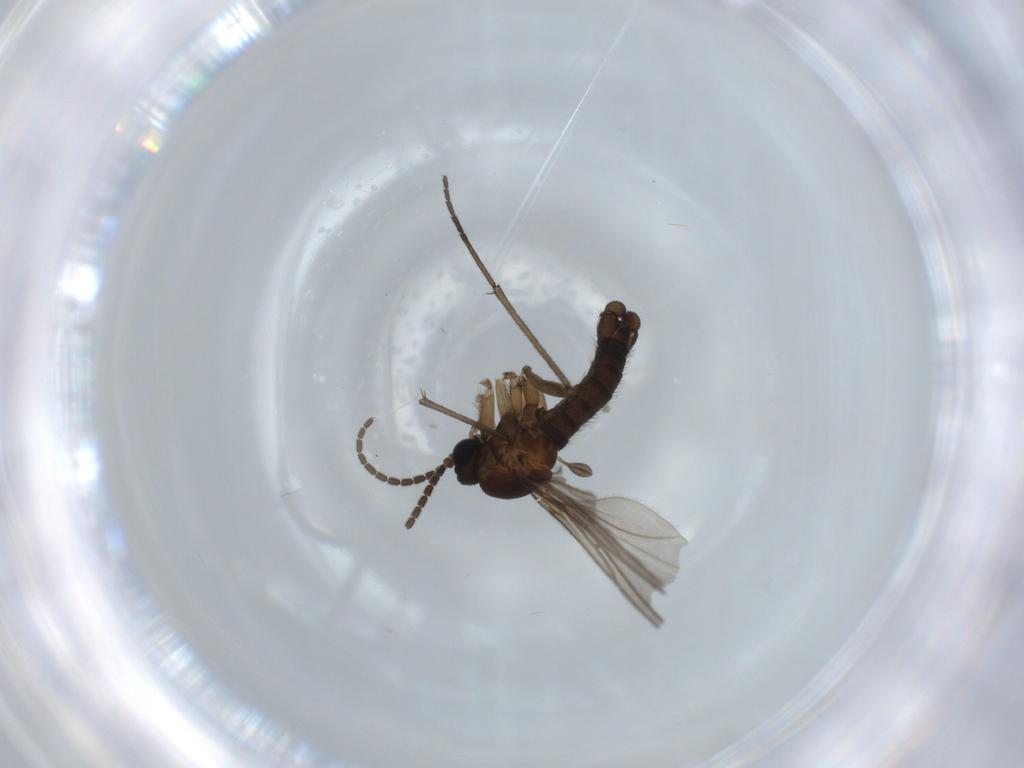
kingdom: Animalia
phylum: Arthropoda
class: Insecta
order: Diptera
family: Sciaridae
